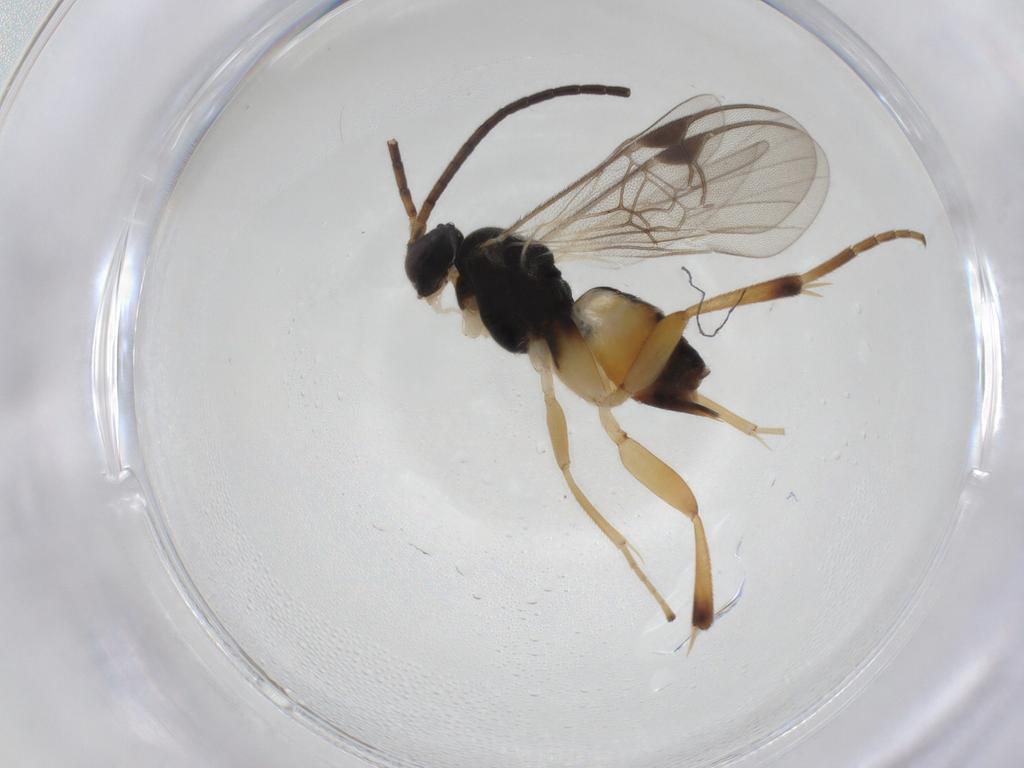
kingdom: Animalia
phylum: Arthropoda
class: Insecta
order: Hymenoptera
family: Braconidae
